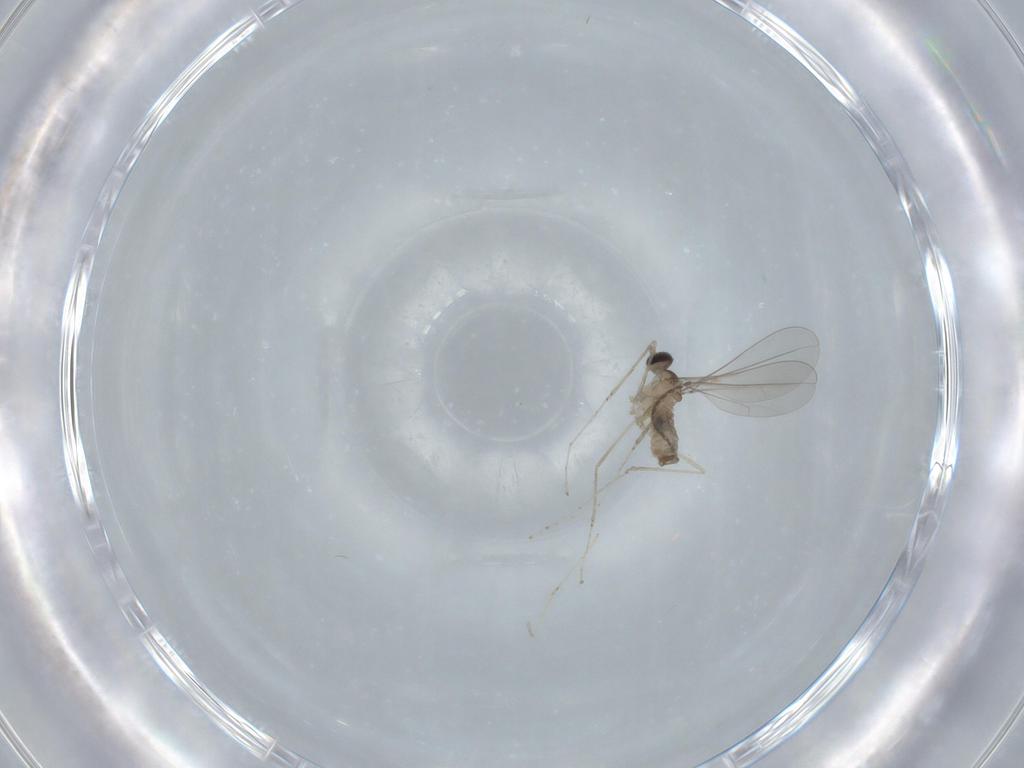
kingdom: Animalia
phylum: Arthropoda
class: Insecta
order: Diptera
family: Cecidomyiidae
